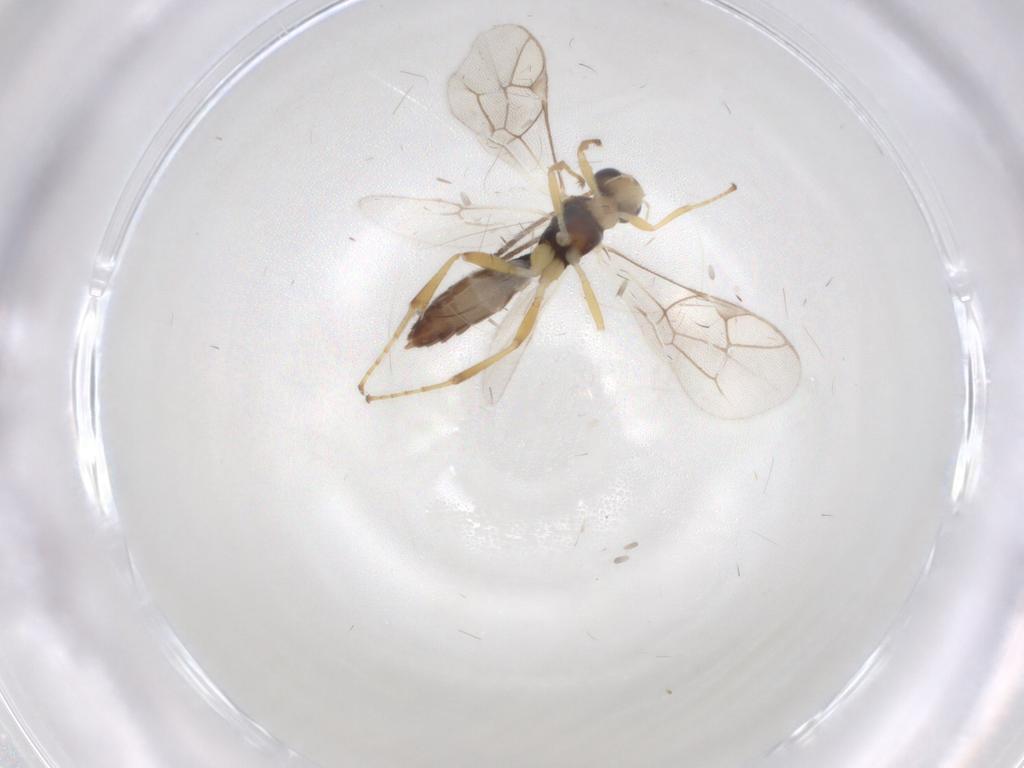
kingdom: Animalia
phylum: Arthropoda
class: Insecta
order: Hymenoptera
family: Ichneumonidae
